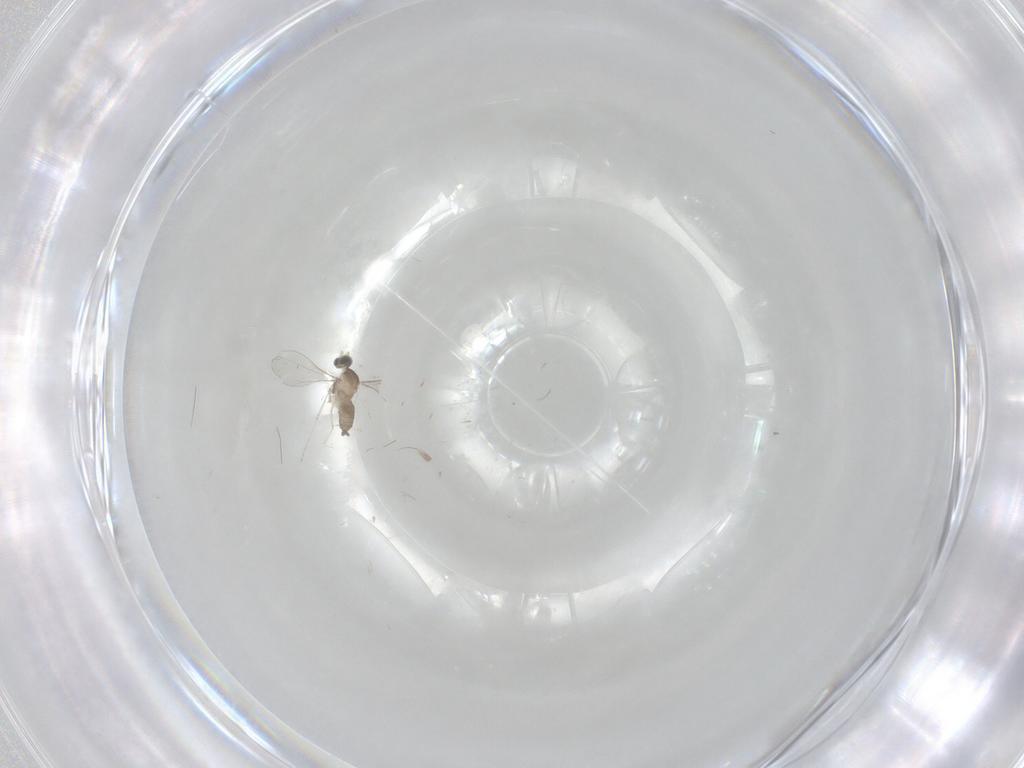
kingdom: Animalia
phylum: Arthropoda
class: Insecta
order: Diptera
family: Cecidomyiidae
